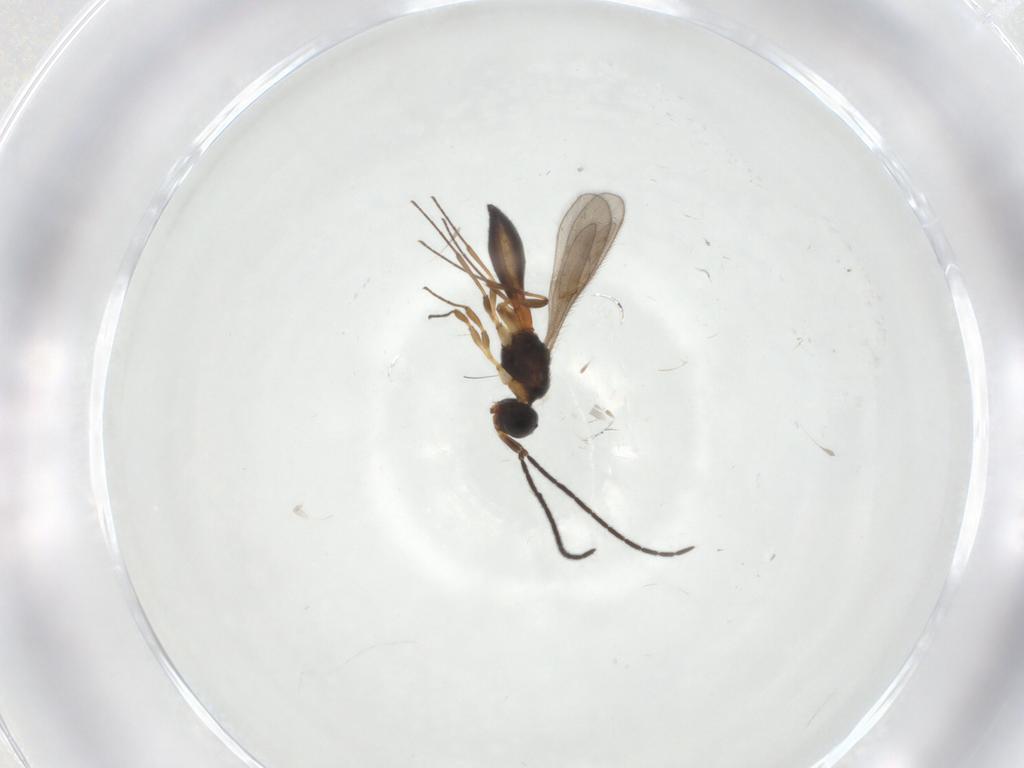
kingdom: Animalia
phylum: Arthropoda
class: Insecta
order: Hymenoptera
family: Scelionidae
